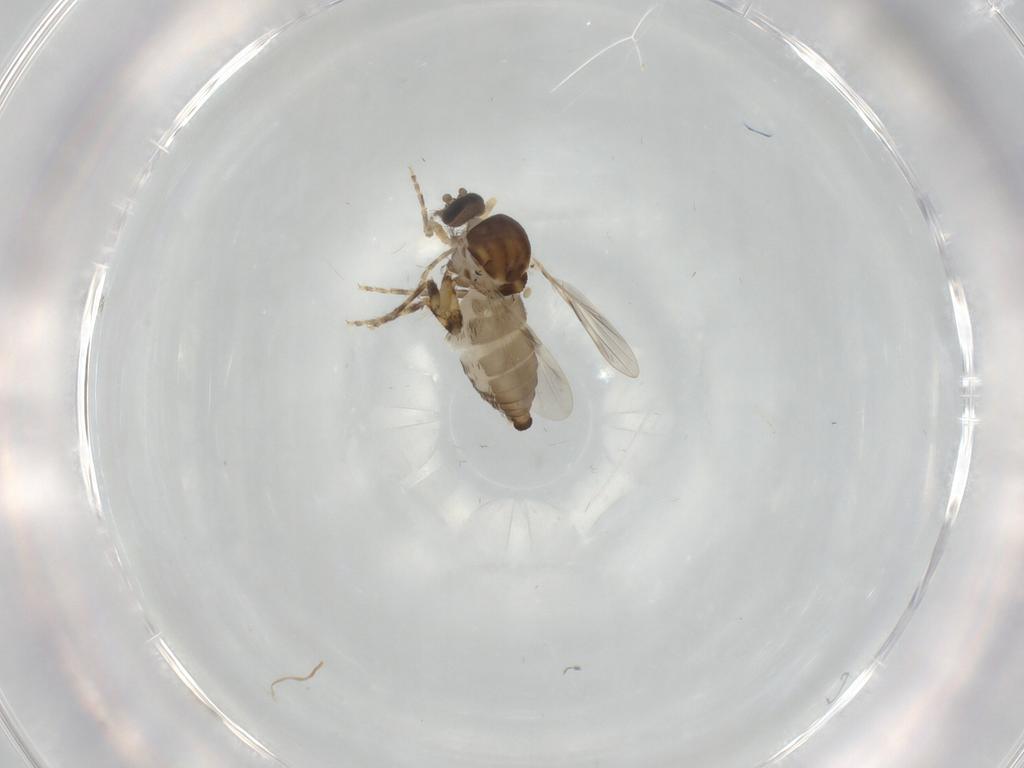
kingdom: Animalia
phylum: Arthropoda
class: Insecta
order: Diptera
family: Ceratopogonidae
